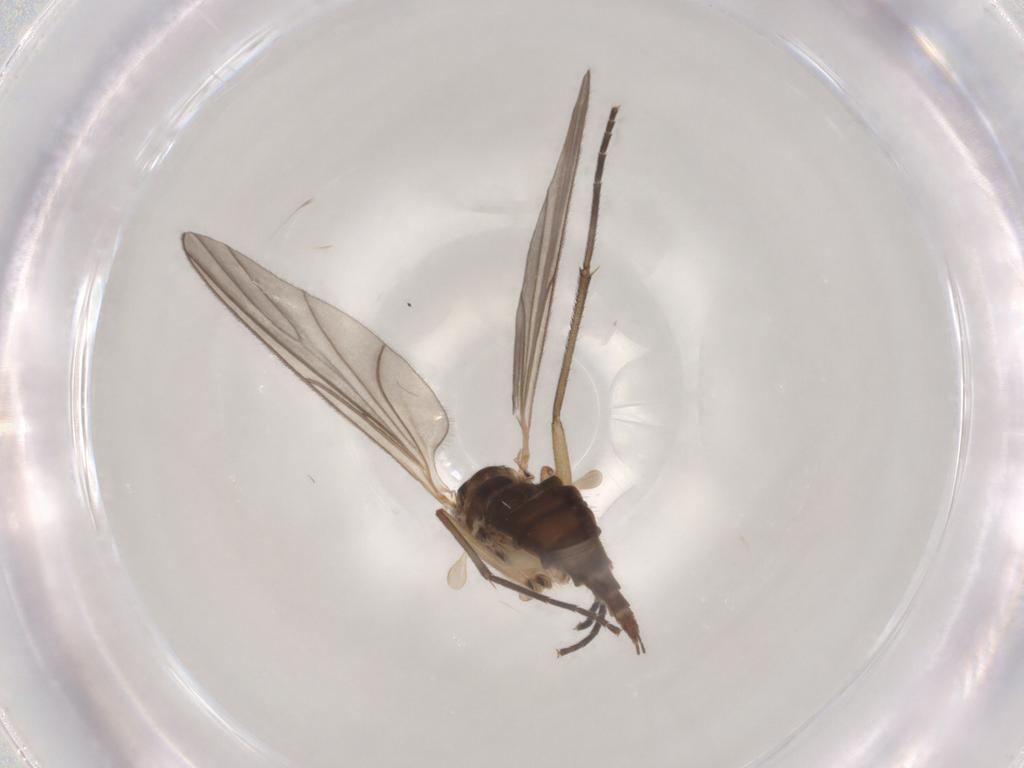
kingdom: Animalia
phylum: Arthropoda
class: Insecta
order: Diptera
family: Sciaridae
